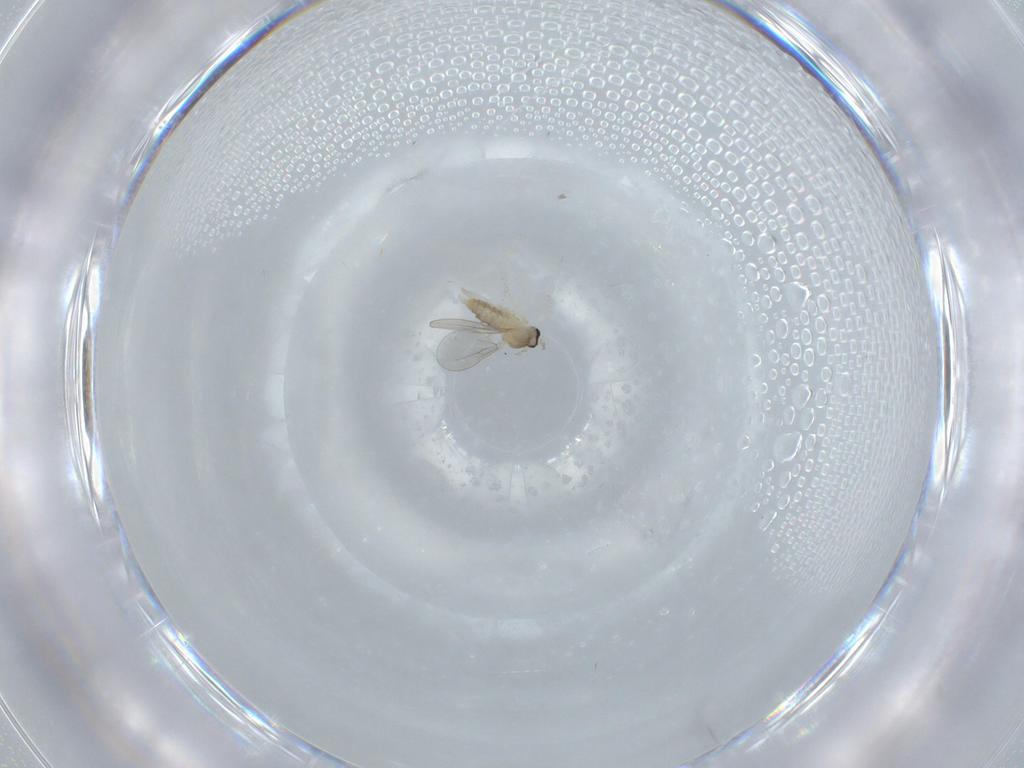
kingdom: Animalia
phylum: Arthropoda
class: Insecta
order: Diptera
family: Cecidomyiidae
